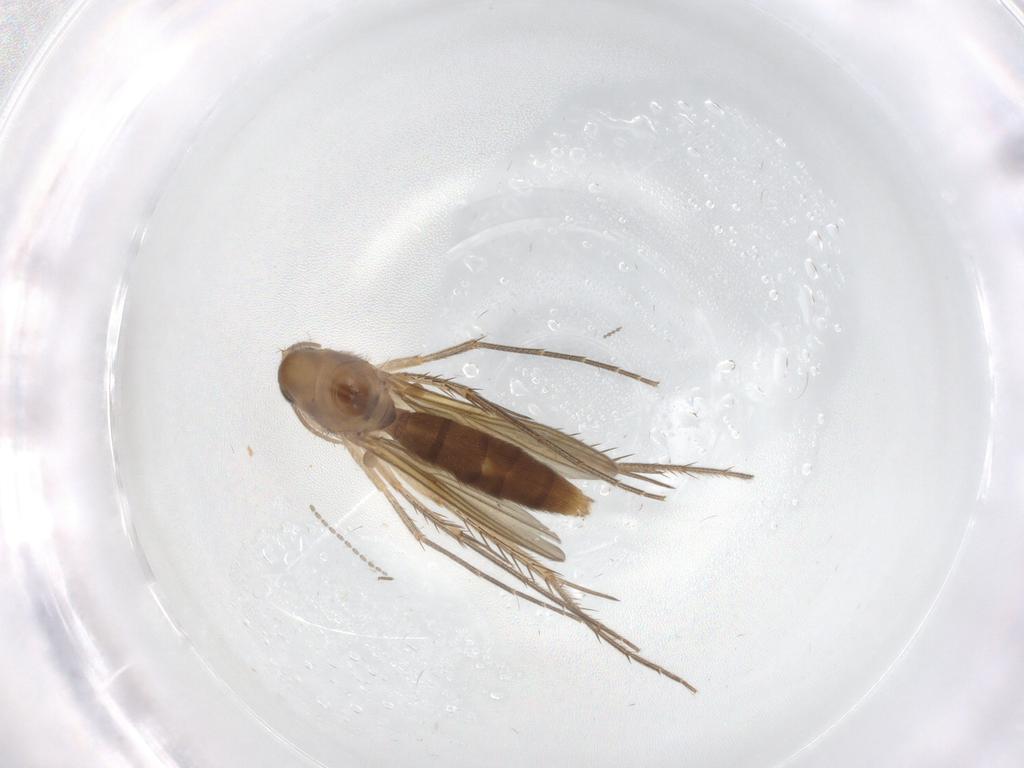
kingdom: Animalia
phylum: Arthropoda
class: Insecta
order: Diptera
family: Mycetophilidae
